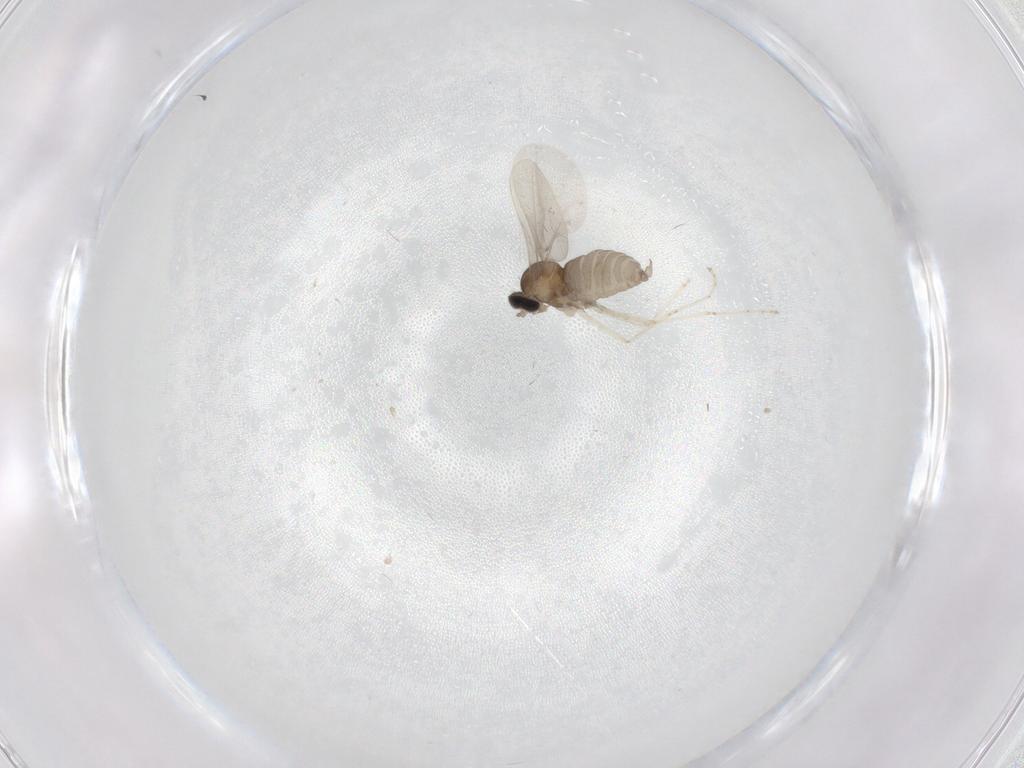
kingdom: Animalia
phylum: Arthropoda
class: Insecta
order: Diptera
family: Cecidomyiidae
